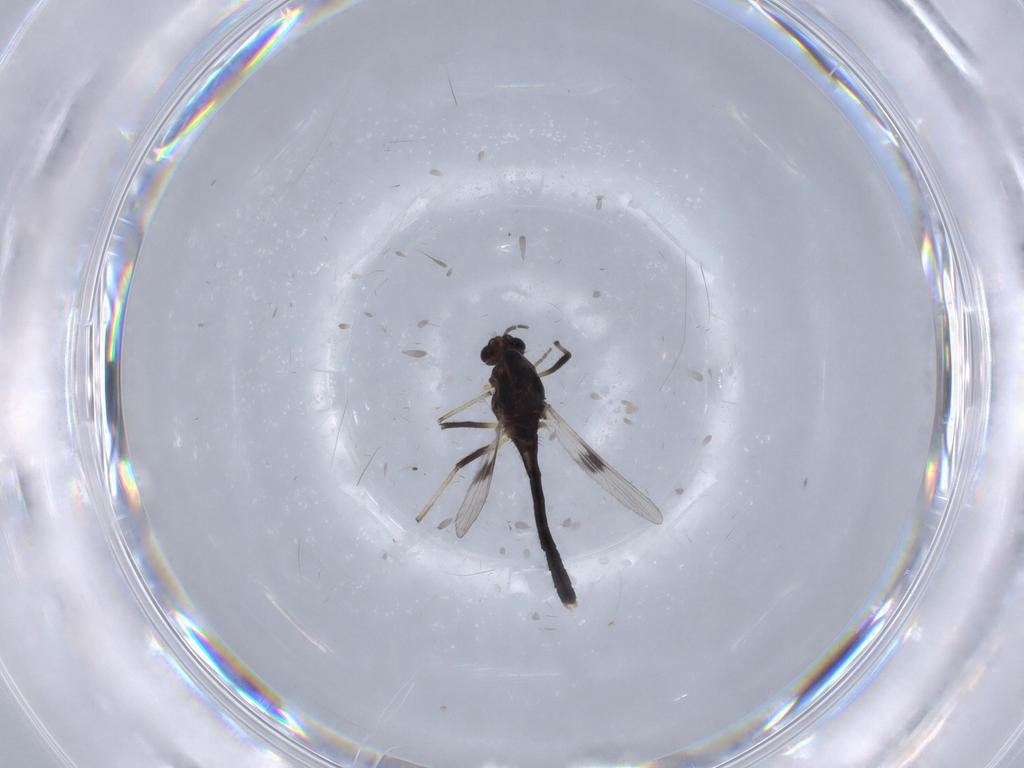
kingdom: Animalia
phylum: Arthropoda
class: Insecta
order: Diptera
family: Chironomidae
